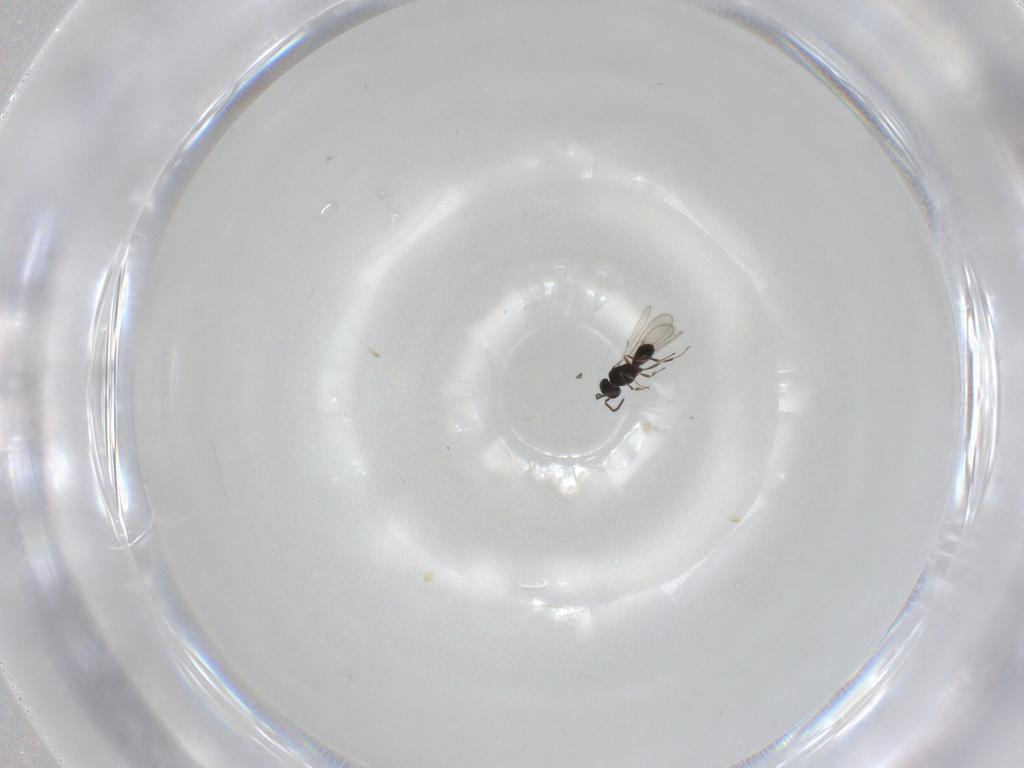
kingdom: Animalia
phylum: Arthropoda
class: Insecta
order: Hymenoptera
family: Scelionidae
